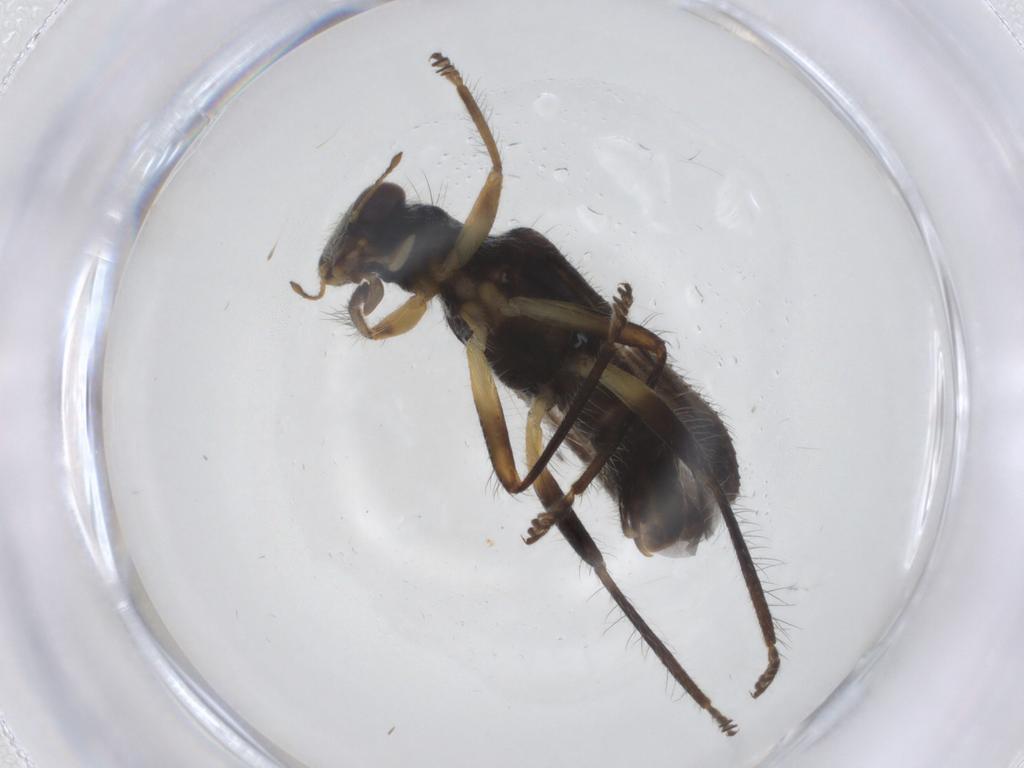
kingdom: Animalia
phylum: Arthropoda
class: Insecta
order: Coleoptera
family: Cleridae
